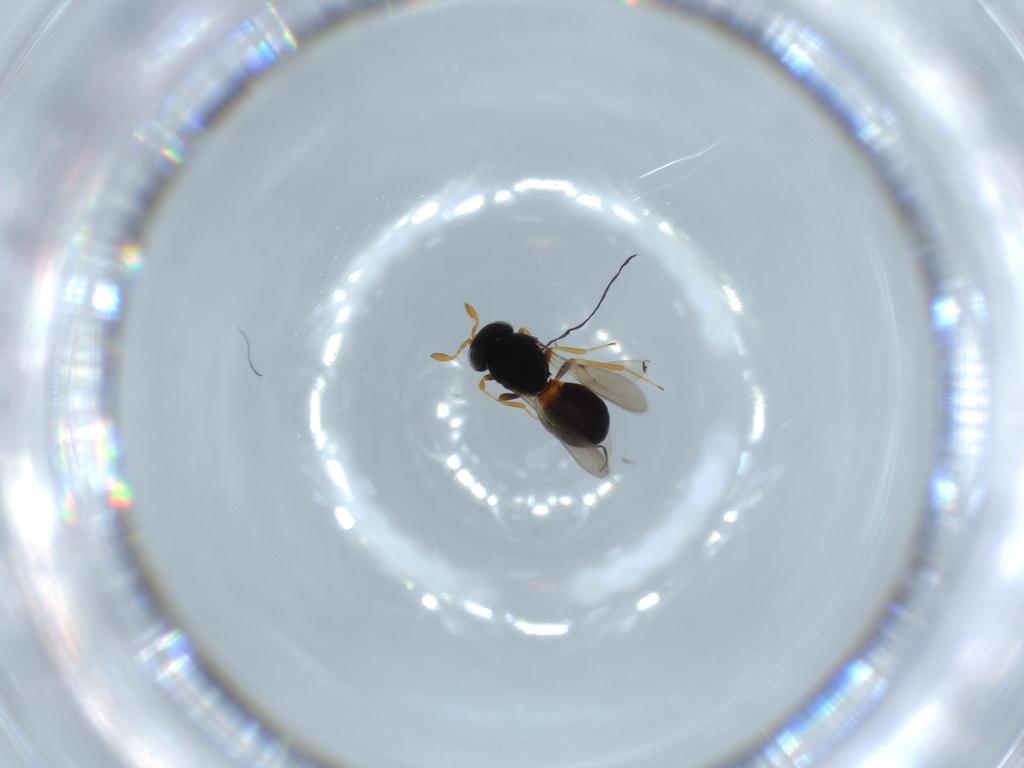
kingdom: Animalia
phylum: Arthropoda
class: Insecta
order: Hymenoptera
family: Scelionidae
